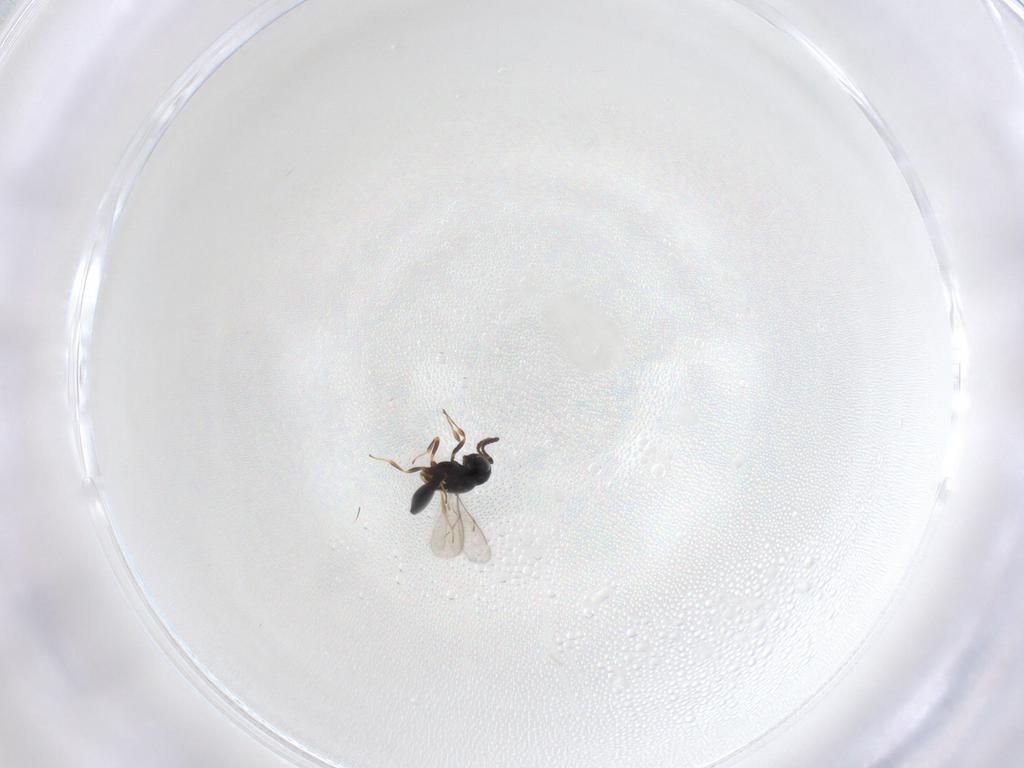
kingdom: Animalia
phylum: Arthropoda
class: Insecta
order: Hymenoptera
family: Scelionidae
